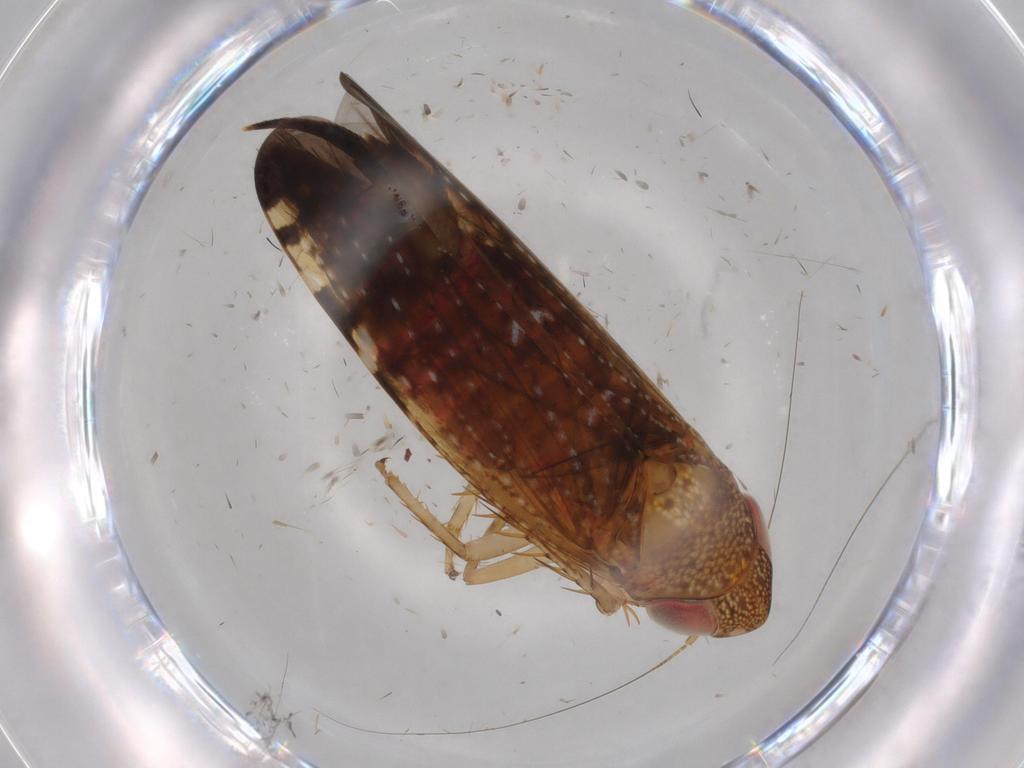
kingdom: Animalia
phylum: Arthropoda
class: Insecta
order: Hemiptera
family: Cicadellidae
